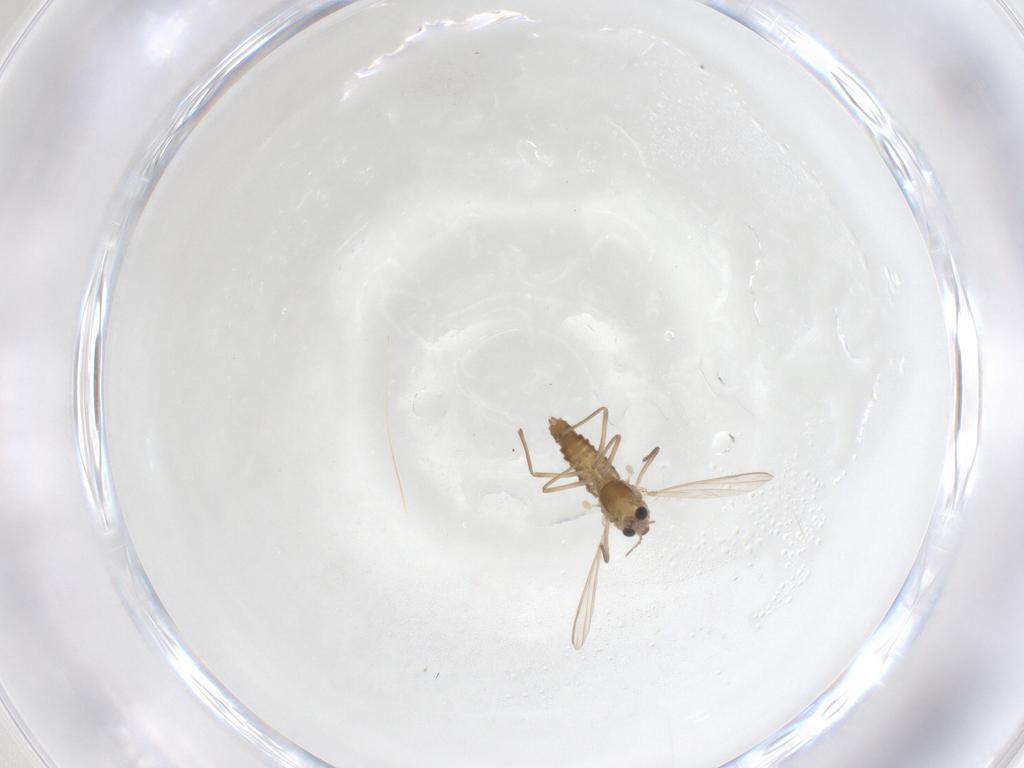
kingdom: Animalia
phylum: Arthropoda
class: Insecta
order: Diptera
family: Chironomidae
